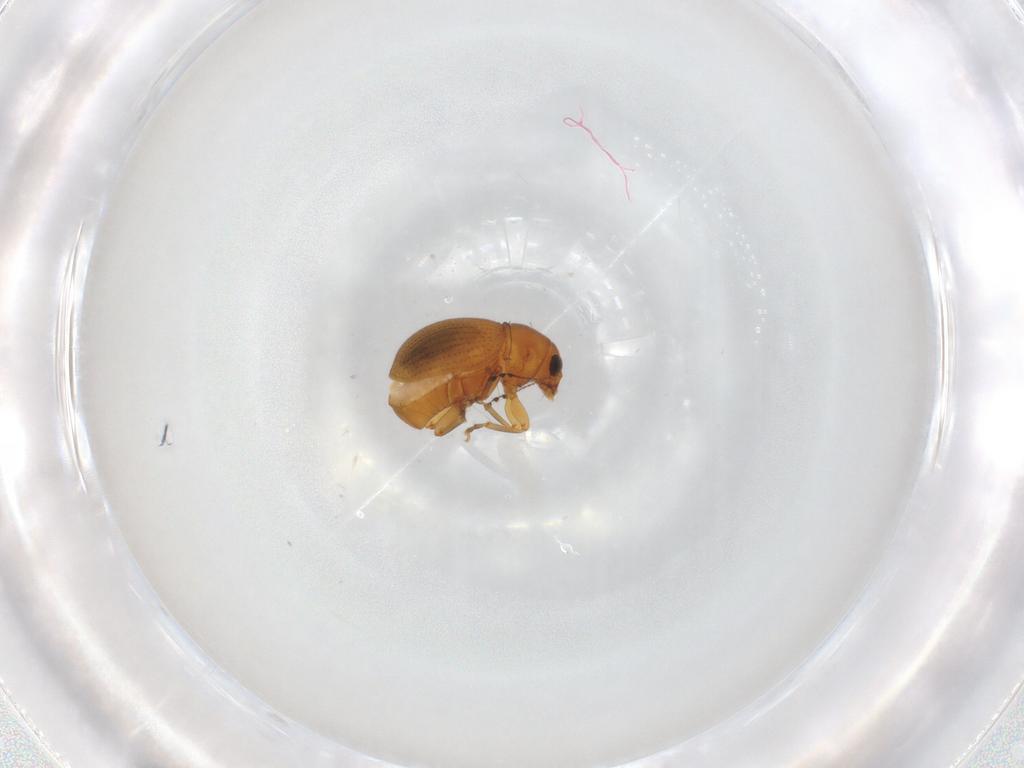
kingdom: Animalia
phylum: Arthropoda
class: Insecta
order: Coleoptera
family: Anthribidae
